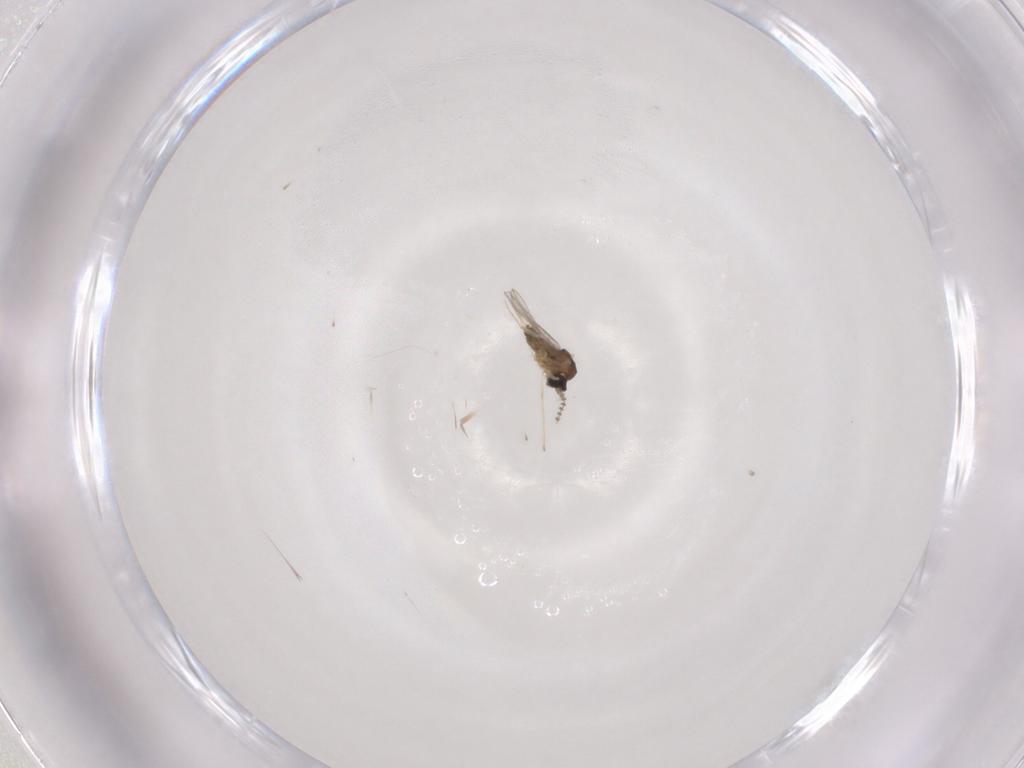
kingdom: Animalia
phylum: Arthropoda
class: Insecta
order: Diptera
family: Cecidomyiidae
